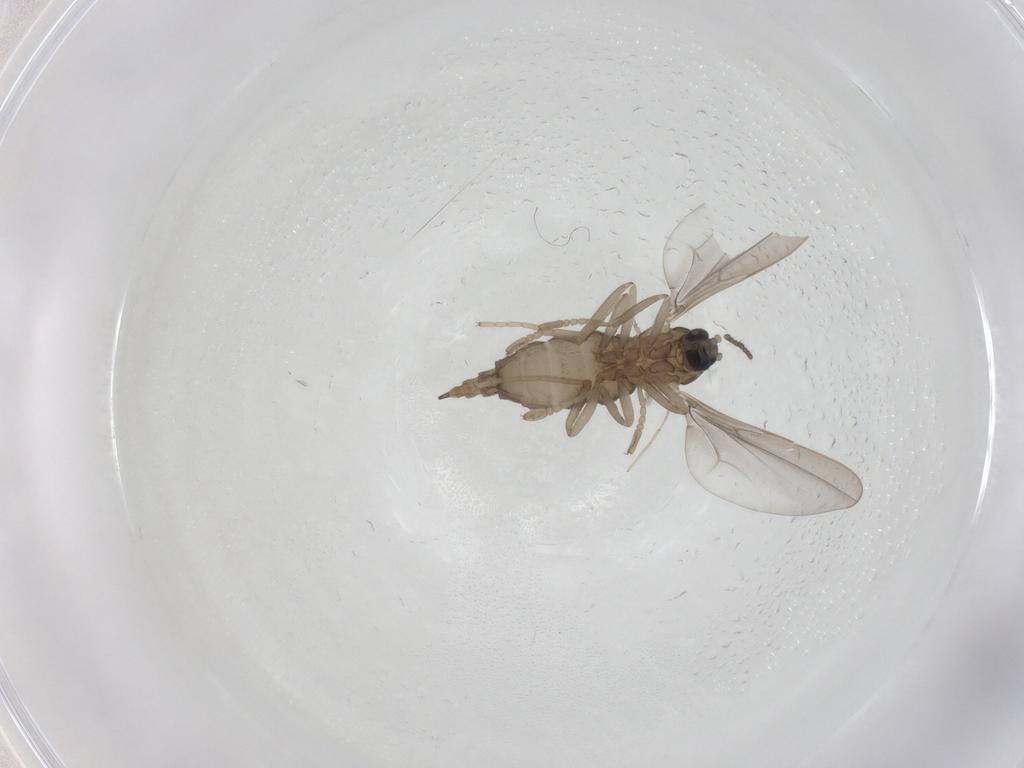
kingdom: Animalia
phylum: Arthropoda
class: Insecta
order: Diptera
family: Cecidomyiidae
